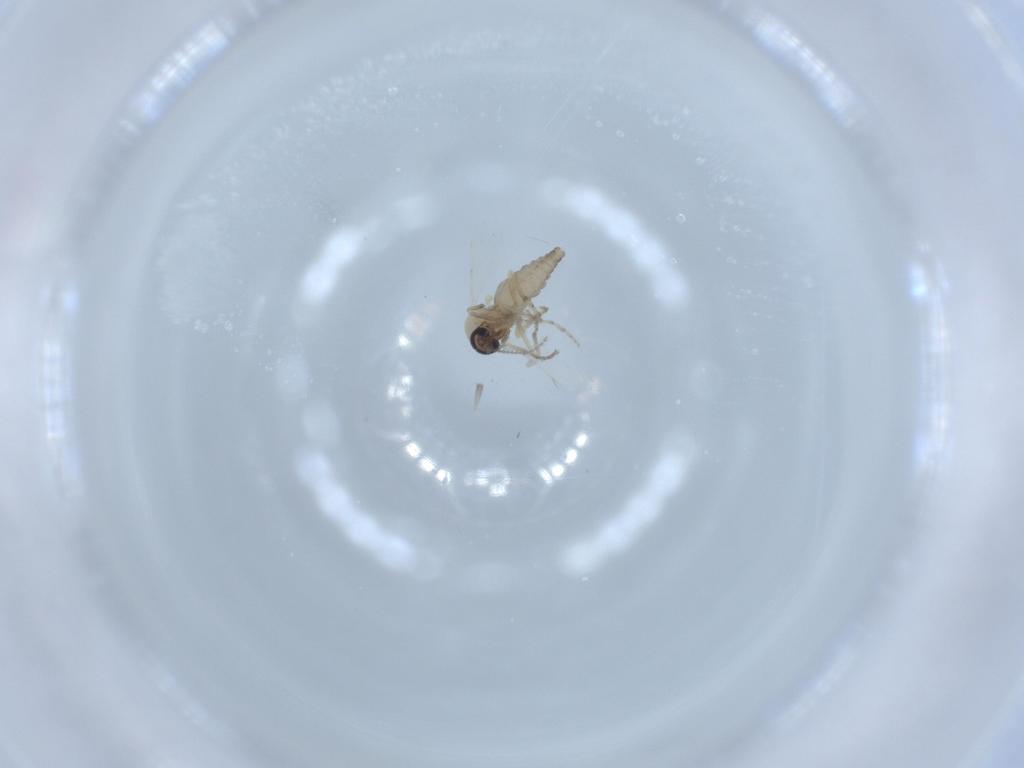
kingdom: Animalia
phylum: Arthropoda
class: Insecta
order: Diptera
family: Ceratopogonidae
